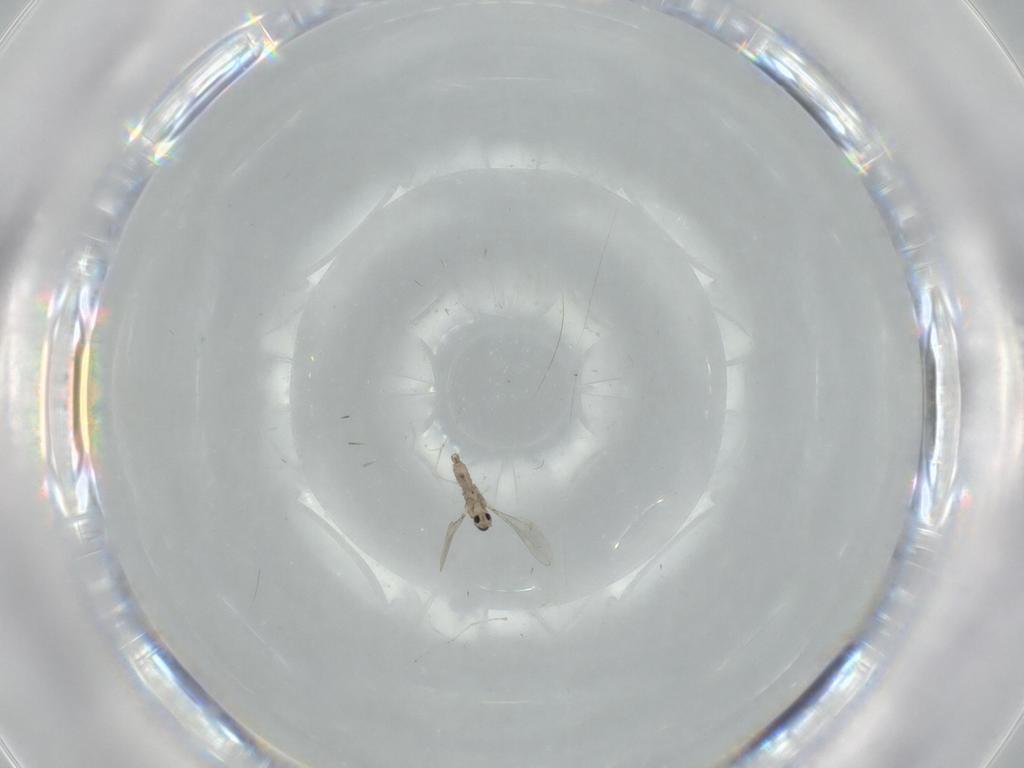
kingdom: Animalia
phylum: Arthropoda
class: Insecta
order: Diptera
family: Cecidomyiidae
